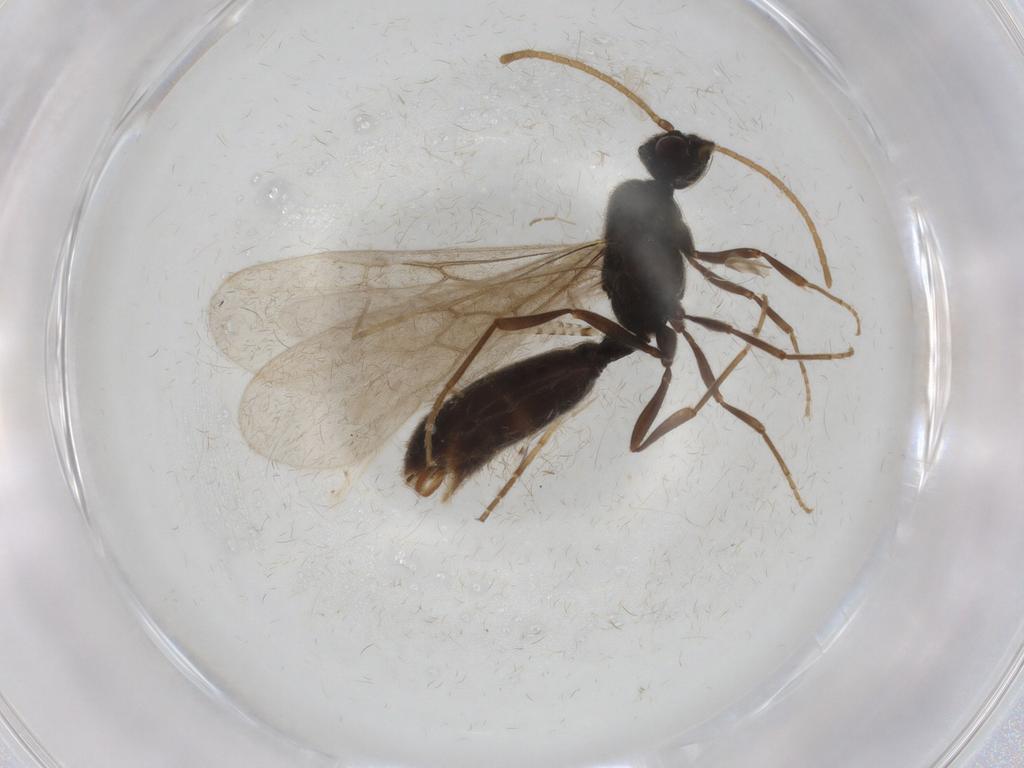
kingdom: Animalia
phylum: Arthropoda
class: Insecta
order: Hymenoptera
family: Formicidae
